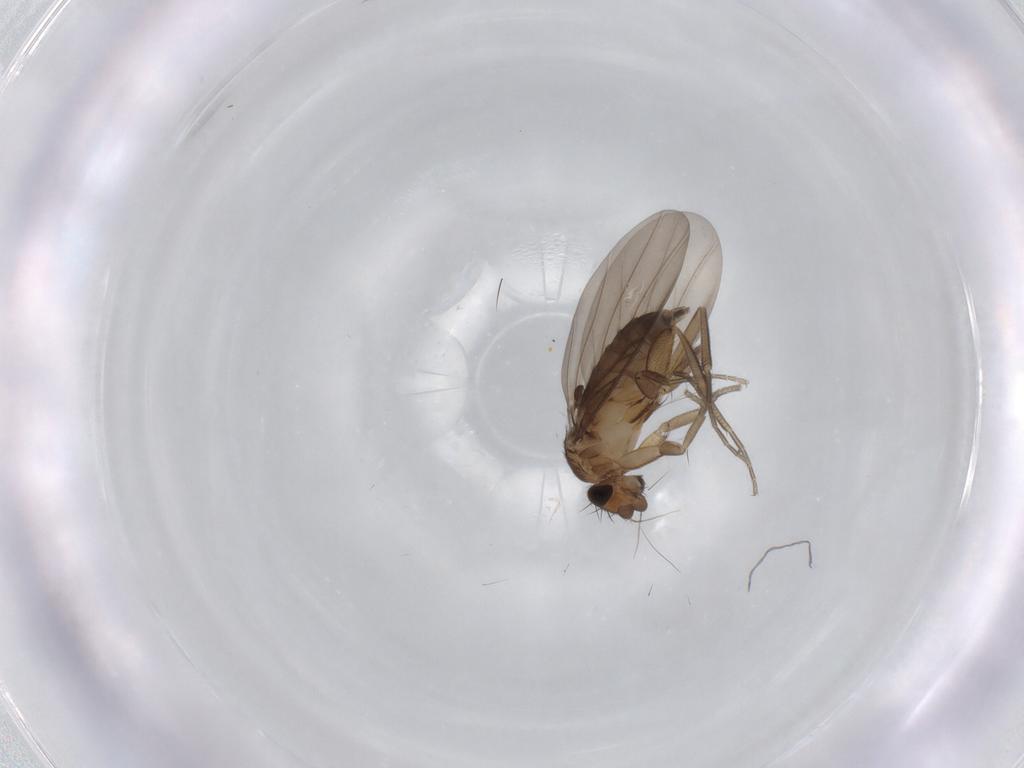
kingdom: Animalia
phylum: Arthropoda
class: Insecta
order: Diptera
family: Phoridae
